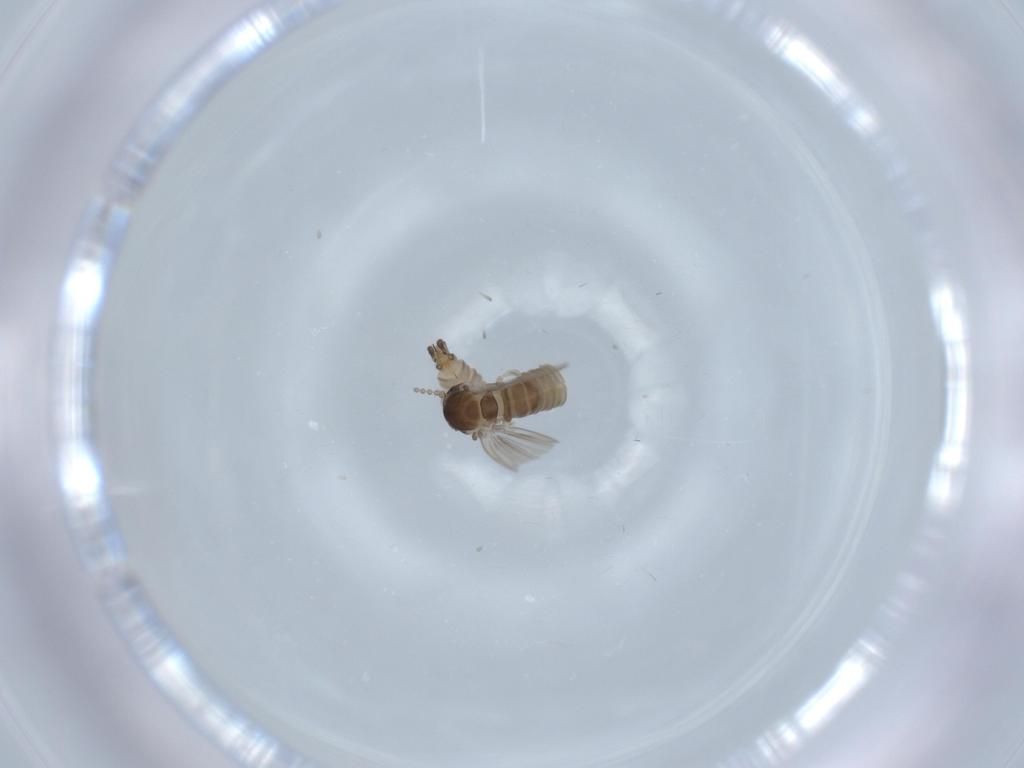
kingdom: Animalia
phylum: Arthropoda
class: Insecta
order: Diptera
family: Psychodidae
